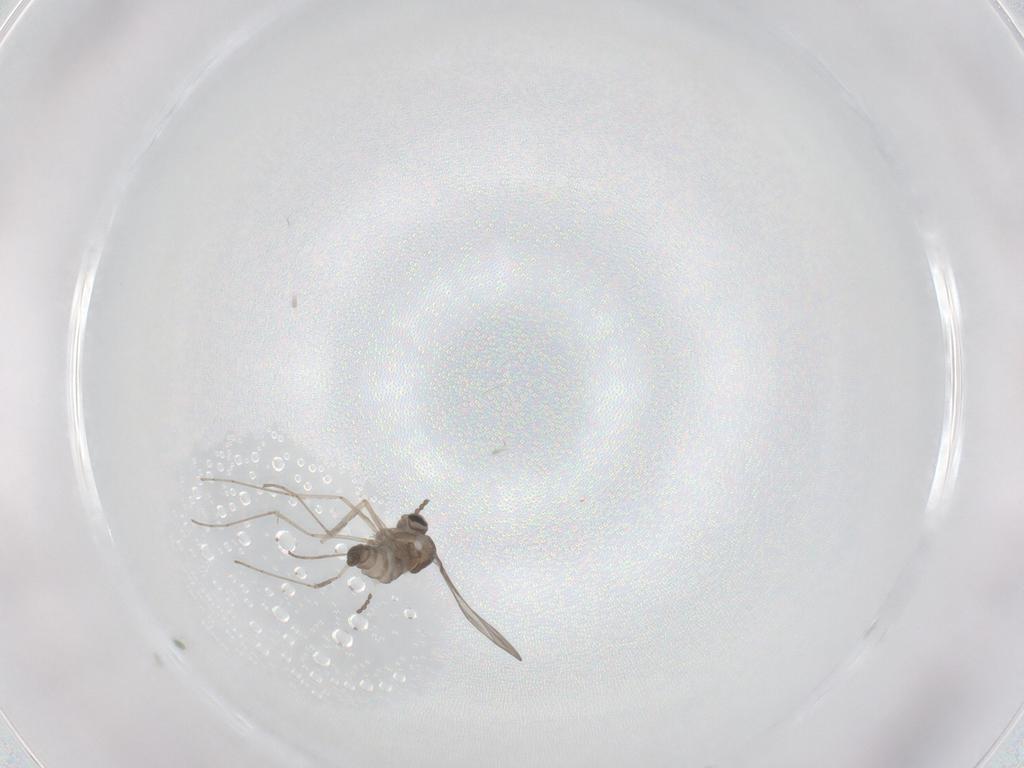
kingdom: Animalia
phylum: Arthropoda
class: Insecta
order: Diptera
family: Cecidomyiidae
